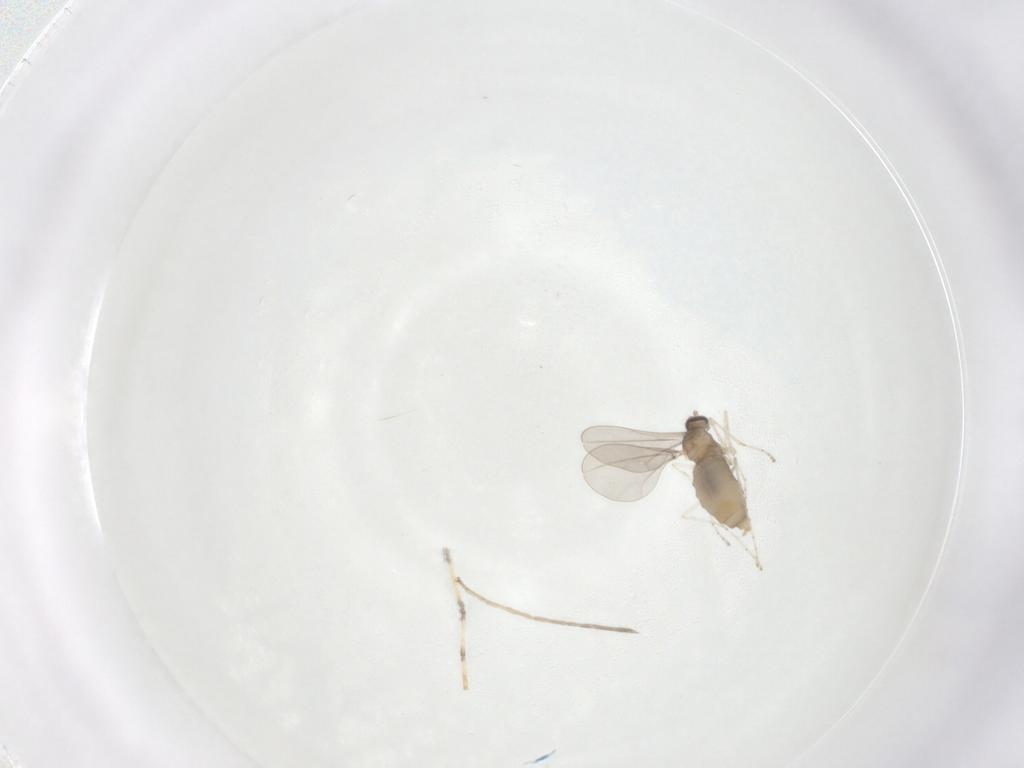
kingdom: Animalia
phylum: Arthropoda
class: Insecta
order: Diptera
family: Cecidomyiidae
